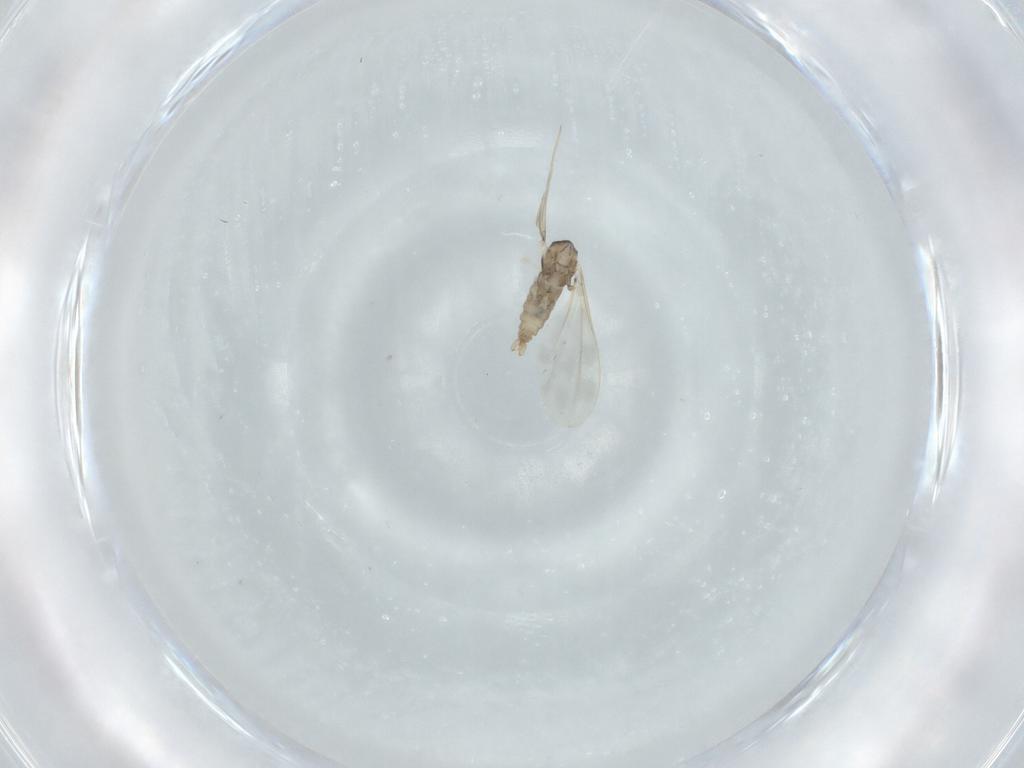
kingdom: Animalia
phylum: Arthropoda
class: Insecta
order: Diptera
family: Cecidomyiidae
